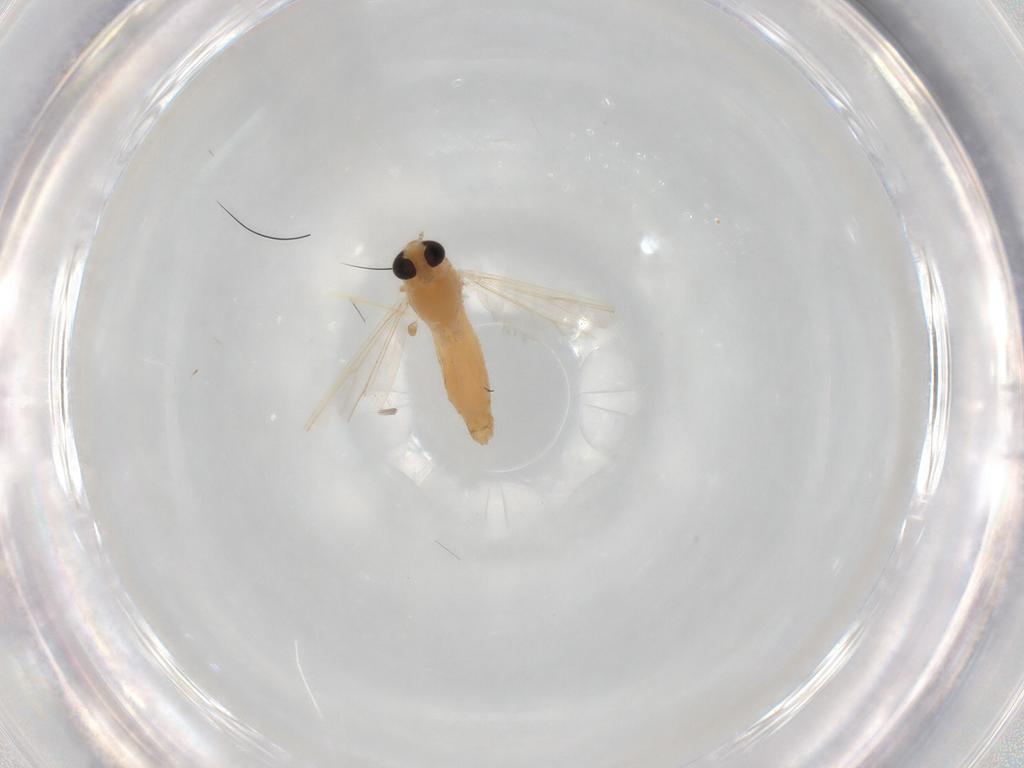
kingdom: Animalia
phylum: Arthropoda
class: Insecta
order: Diptera
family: Chironomidae
